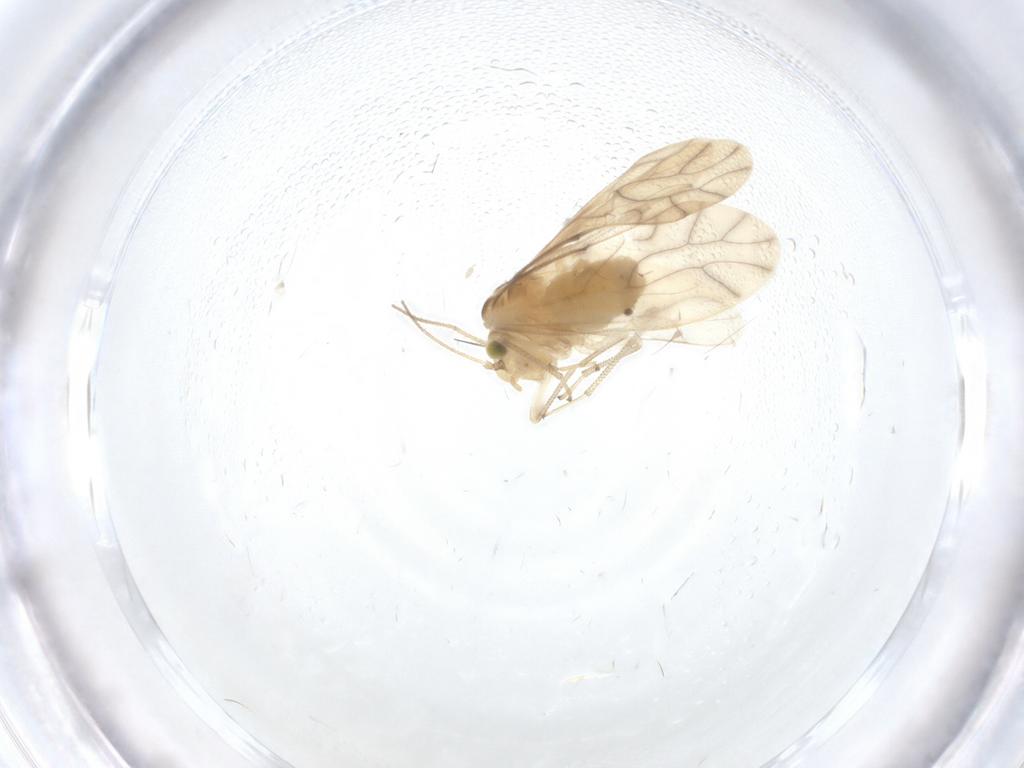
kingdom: Animalia
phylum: Arthropoda
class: Insecta
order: Psocodea
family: Caeciliusidae
